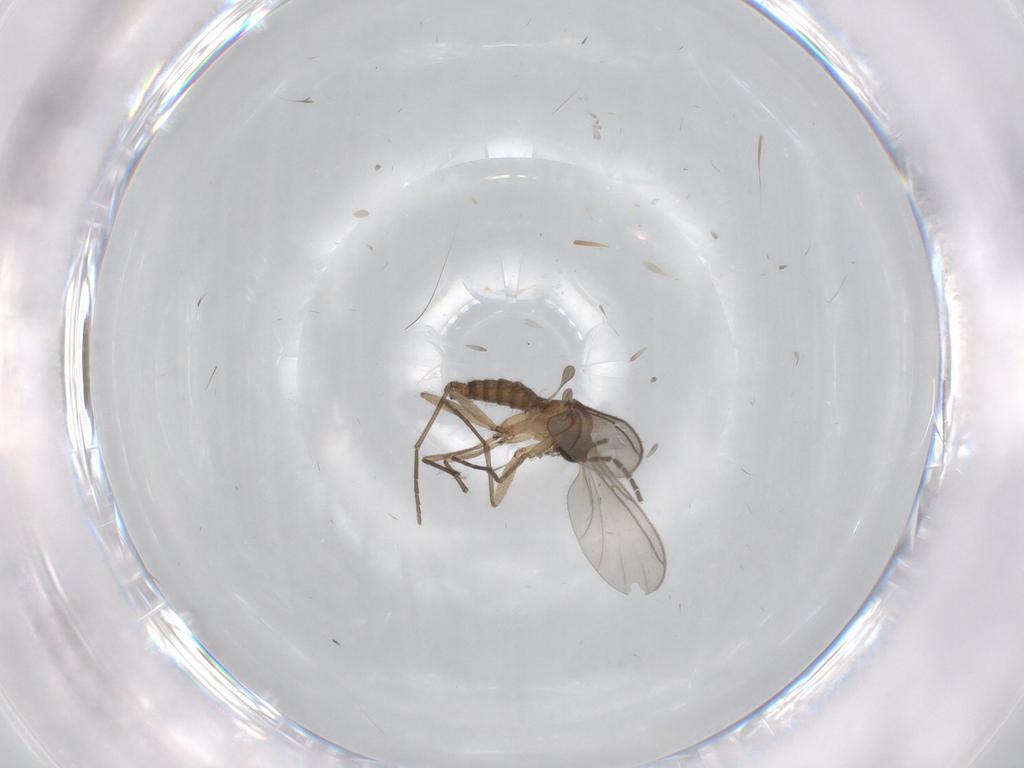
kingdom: Animalia
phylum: Arthropoda
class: Insecta
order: Diptera
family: Sciaridae
